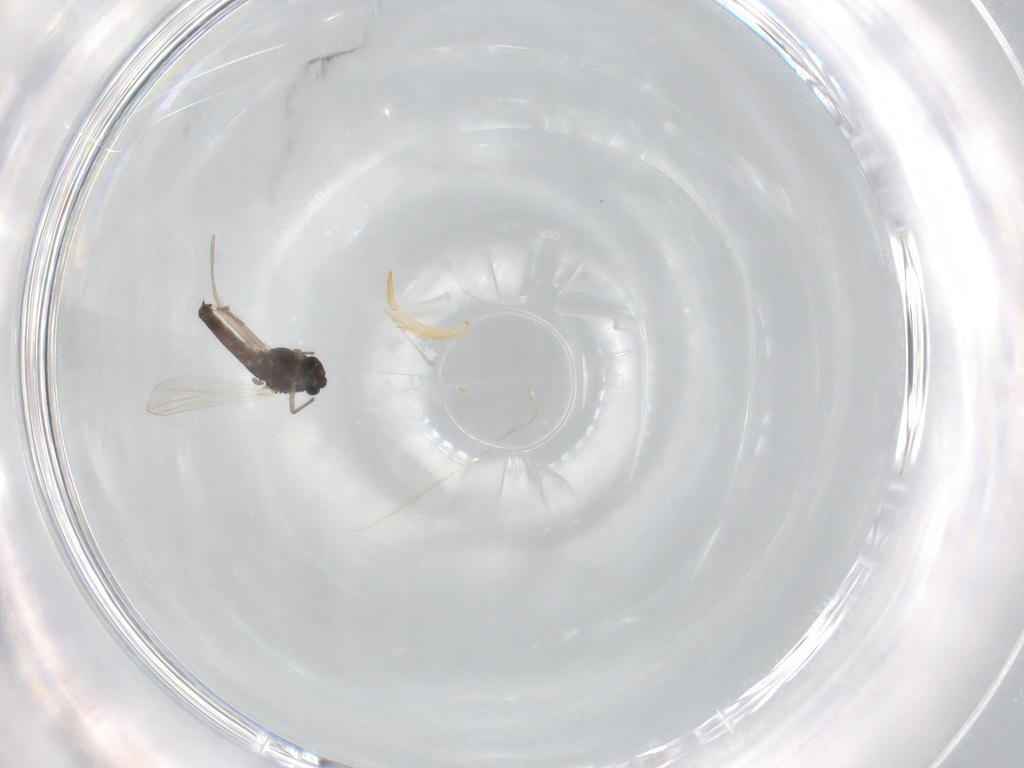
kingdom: Animalia
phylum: Arthropoda
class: Insecta
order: Diptera
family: Chironomidae
